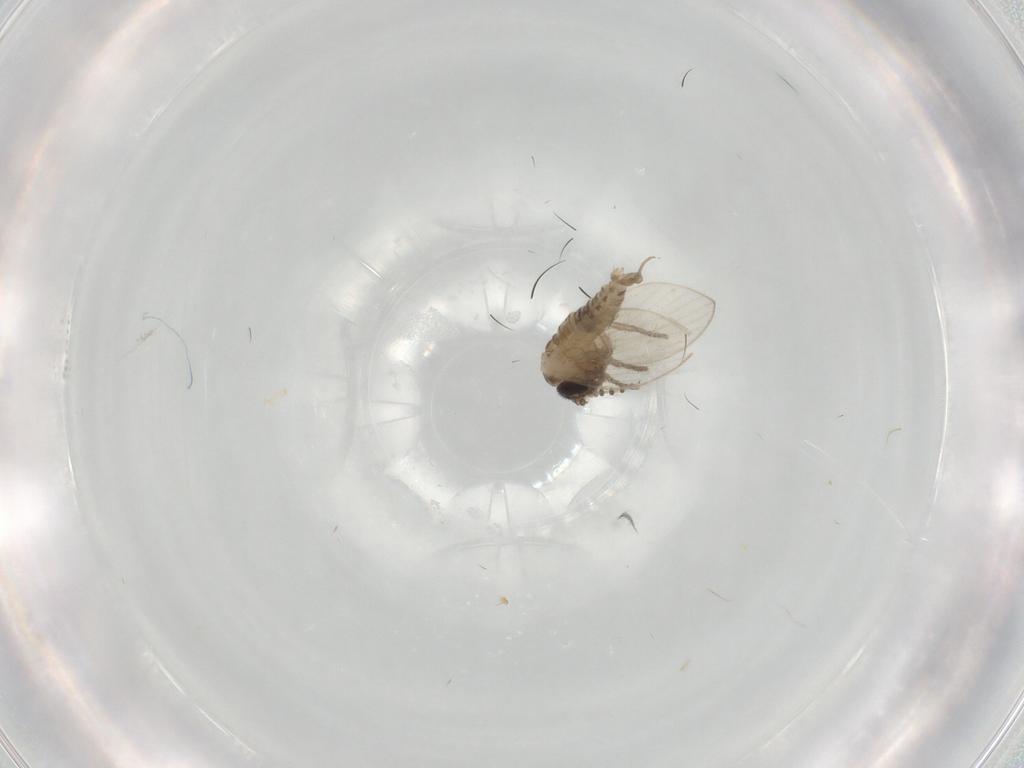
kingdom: Animalia
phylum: Arthropoda
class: Insecta
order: Diptera
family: Psychodidae
